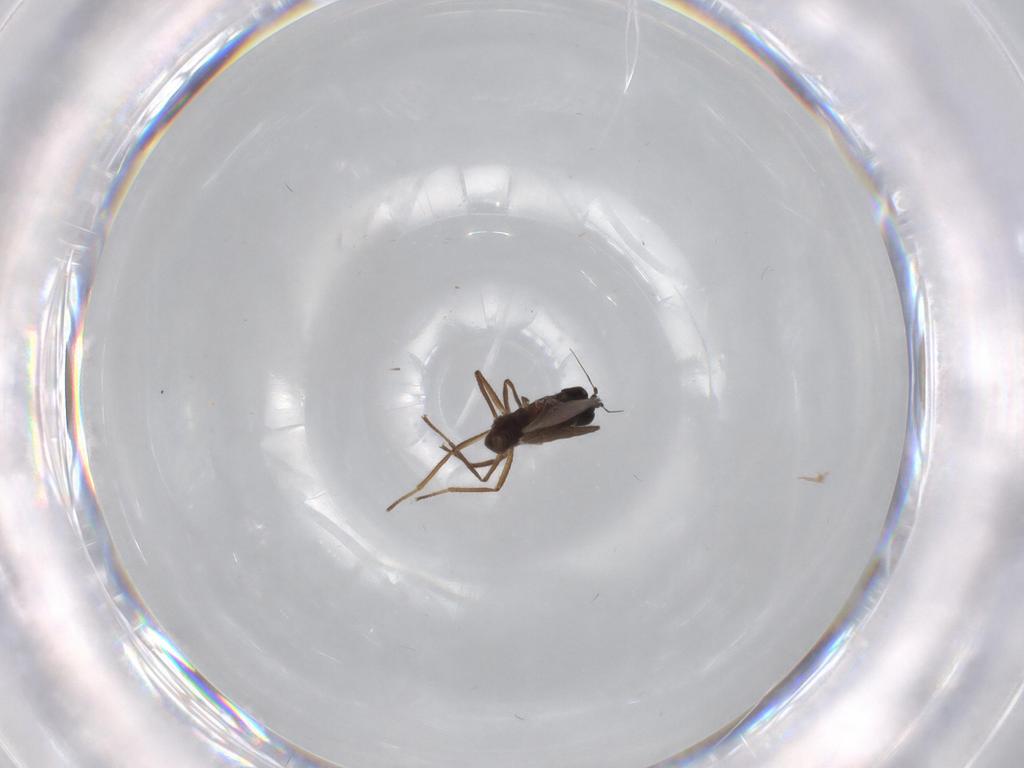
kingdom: Animalia
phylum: Arthropoda
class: Insecta
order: Diptera
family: Empididae
